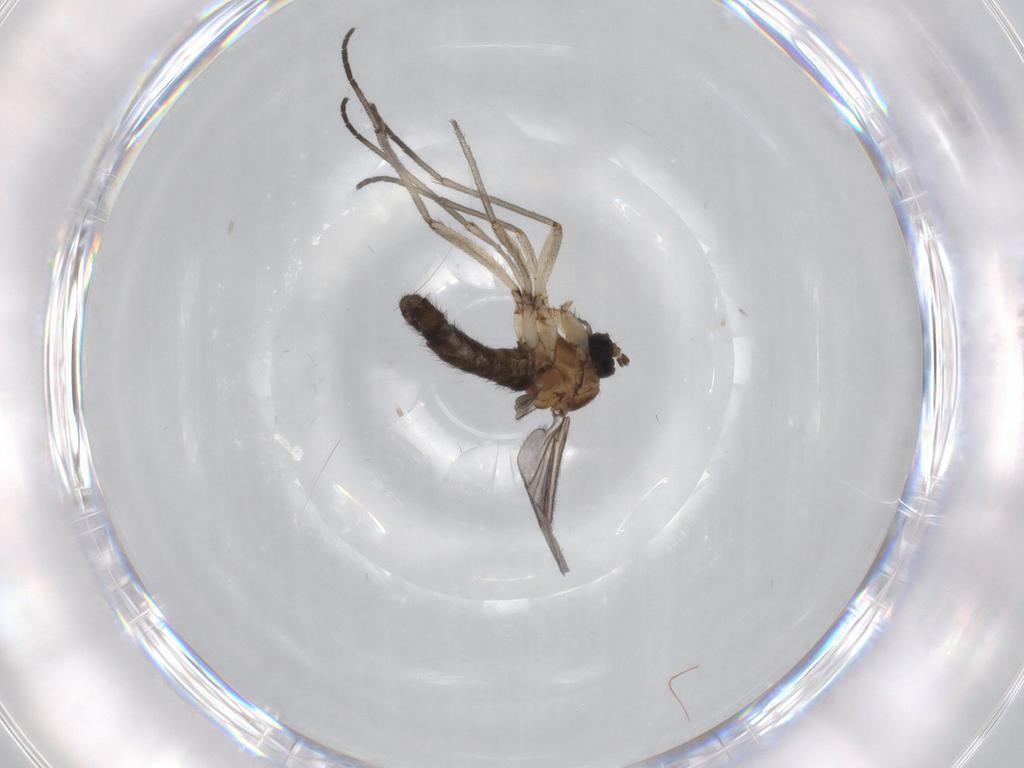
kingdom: Animalia
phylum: Arthropoda
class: Insecta
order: Diptera
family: Sciaridae
